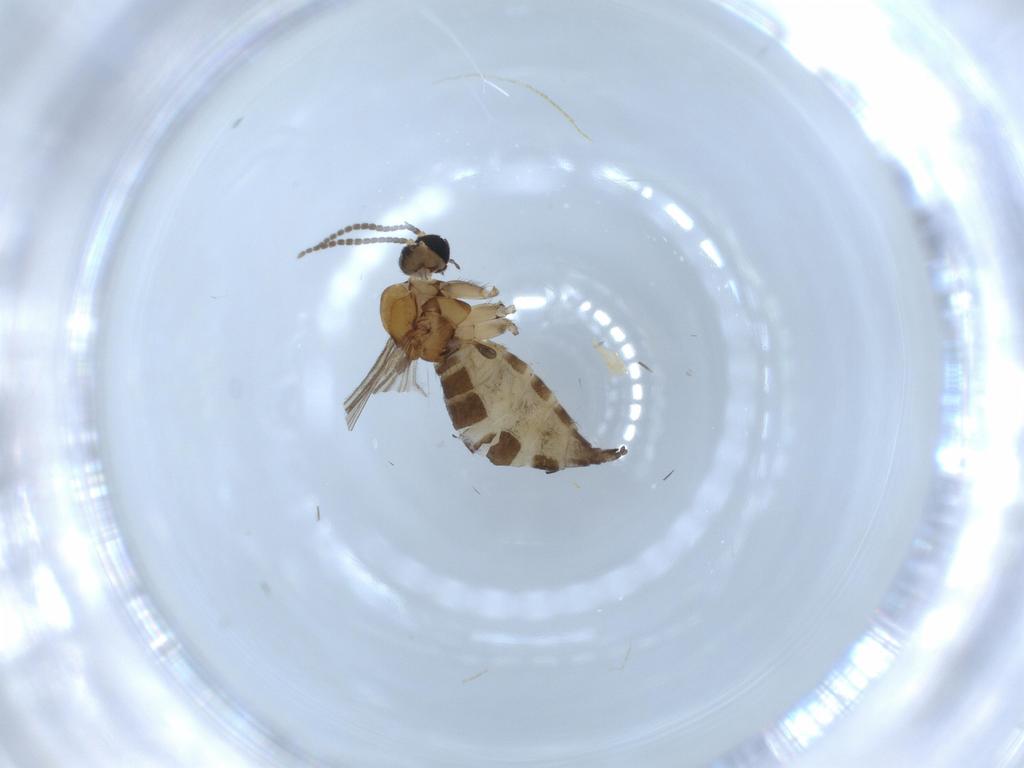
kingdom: Animalia
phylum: Arthropoda
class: Insecta
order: Diptera
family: Sciaridae
